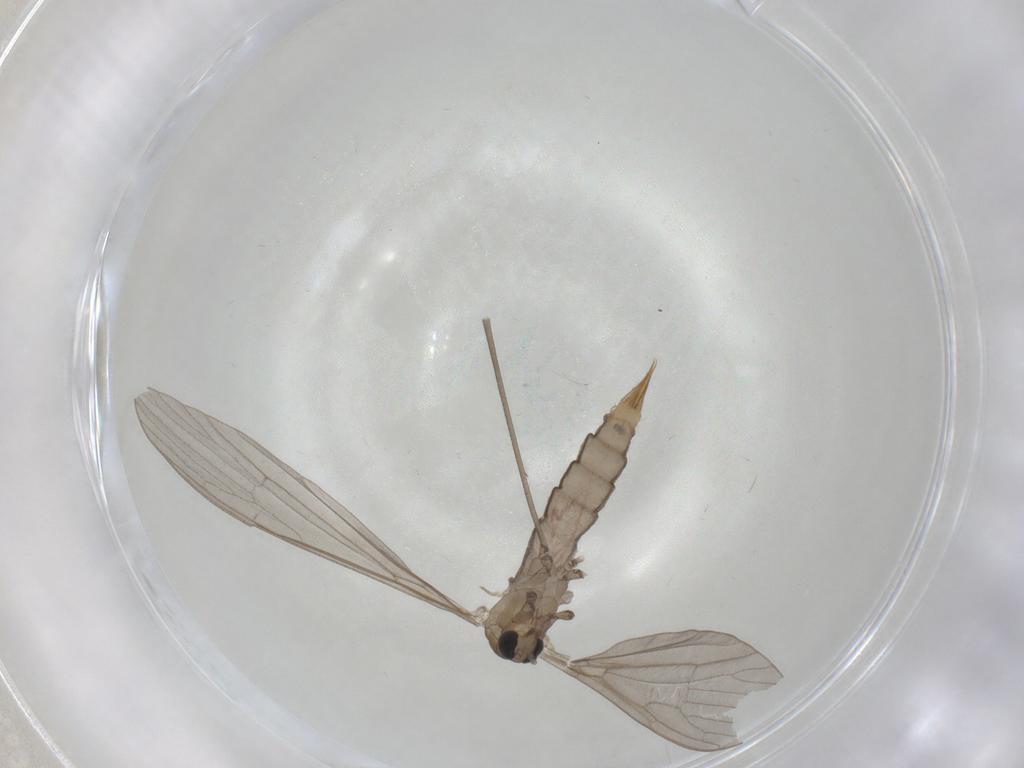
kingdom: Animalia
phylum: Arthropoda
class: Insecta
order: Diptera
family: Limoniidae
